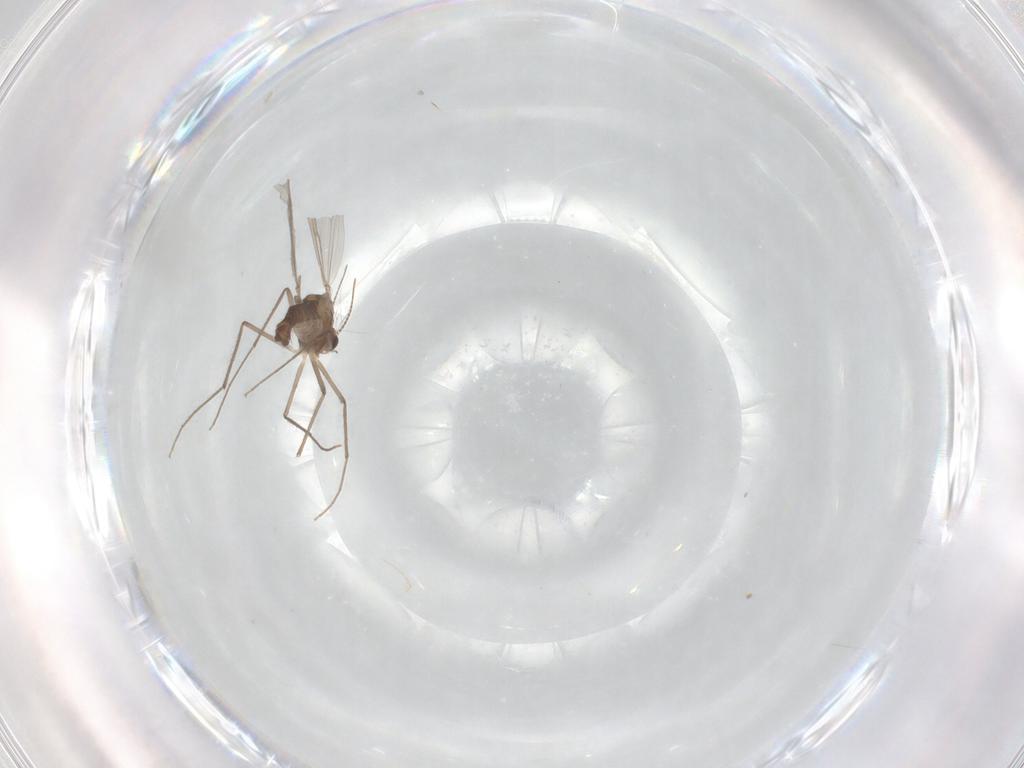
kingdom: Animalia
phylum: Arthropoda
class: Insecta
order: Diptera
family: Chironomidae
